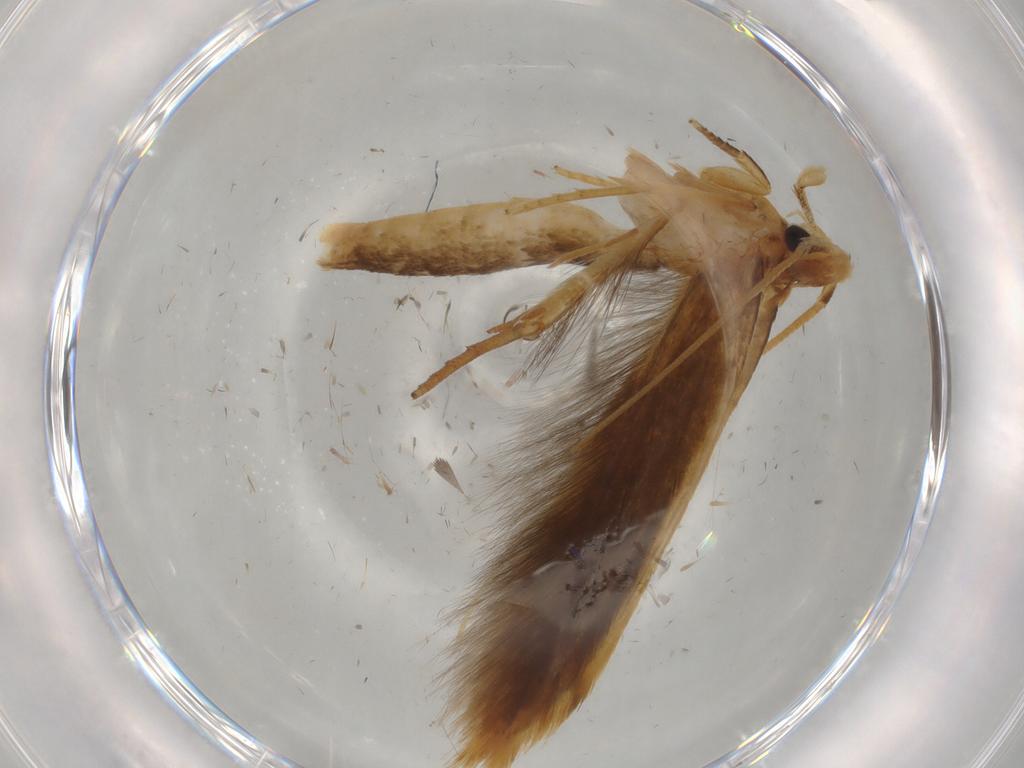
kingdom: Animalia
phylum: Arthropoda
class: Insecta
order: Lepidoptera
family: Tineidae
